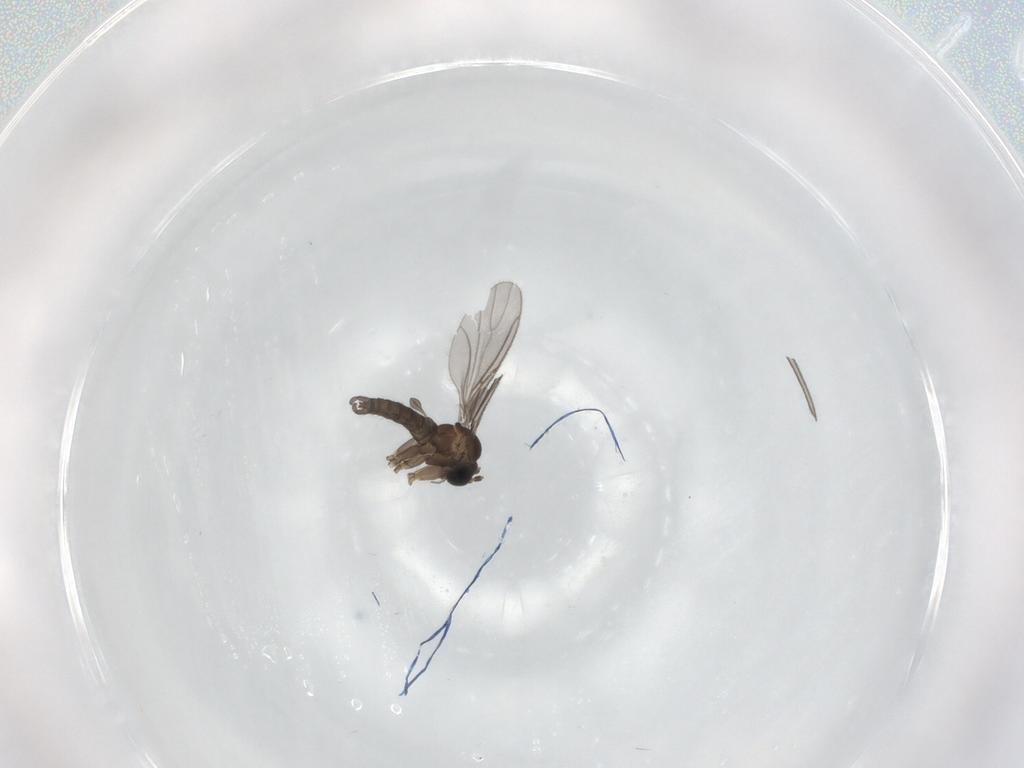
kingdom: Animalia
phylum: Arthropoda
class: Insecta
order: Diptera
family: Sciaridae
